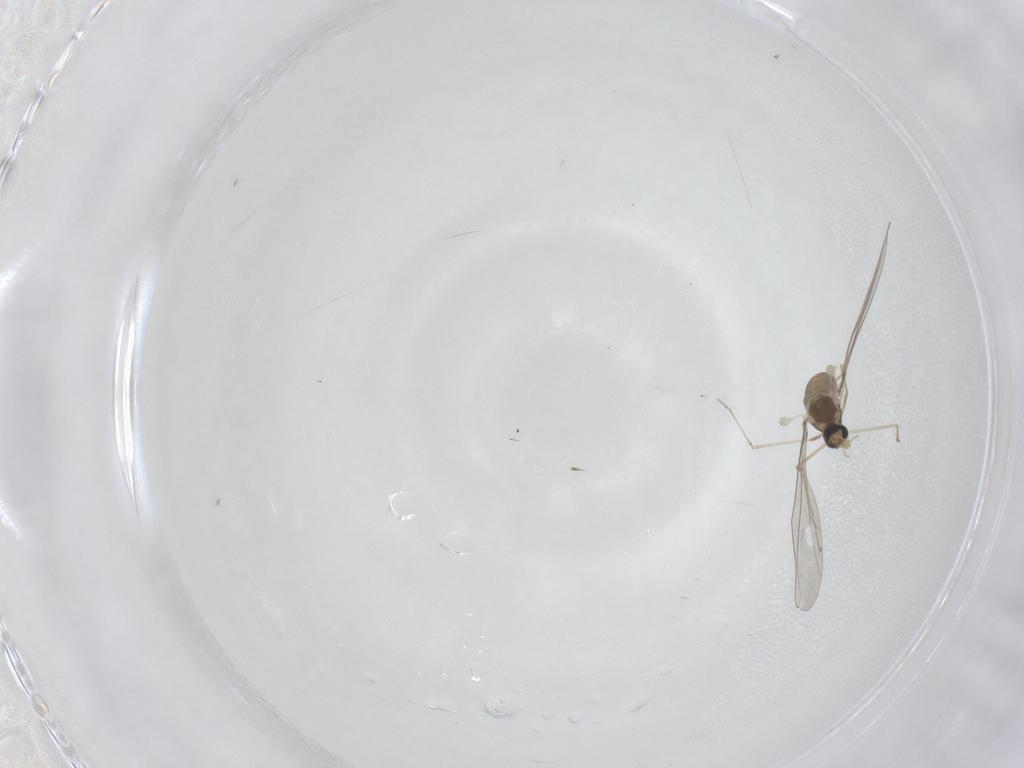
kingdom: Animalia
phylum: Arthropoda
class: Insecta
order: Diptera
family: Cecidomyiidae
